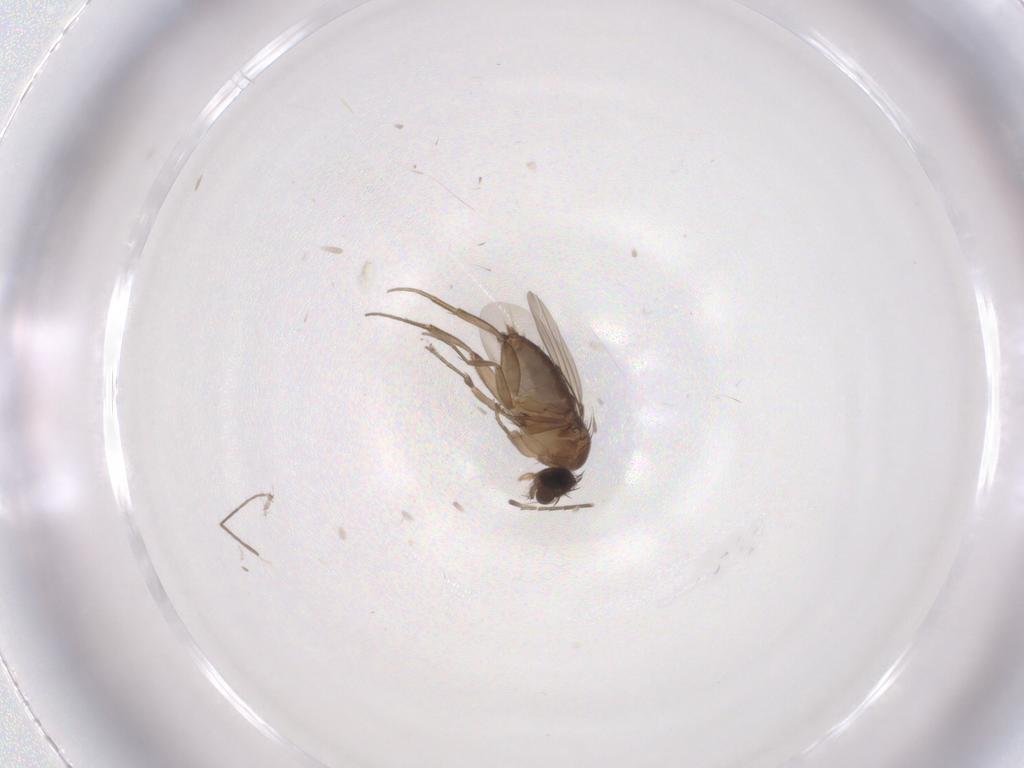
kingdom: Animalia
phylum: Arthropoda
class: Insecta
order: Diptera
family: Phoridae
